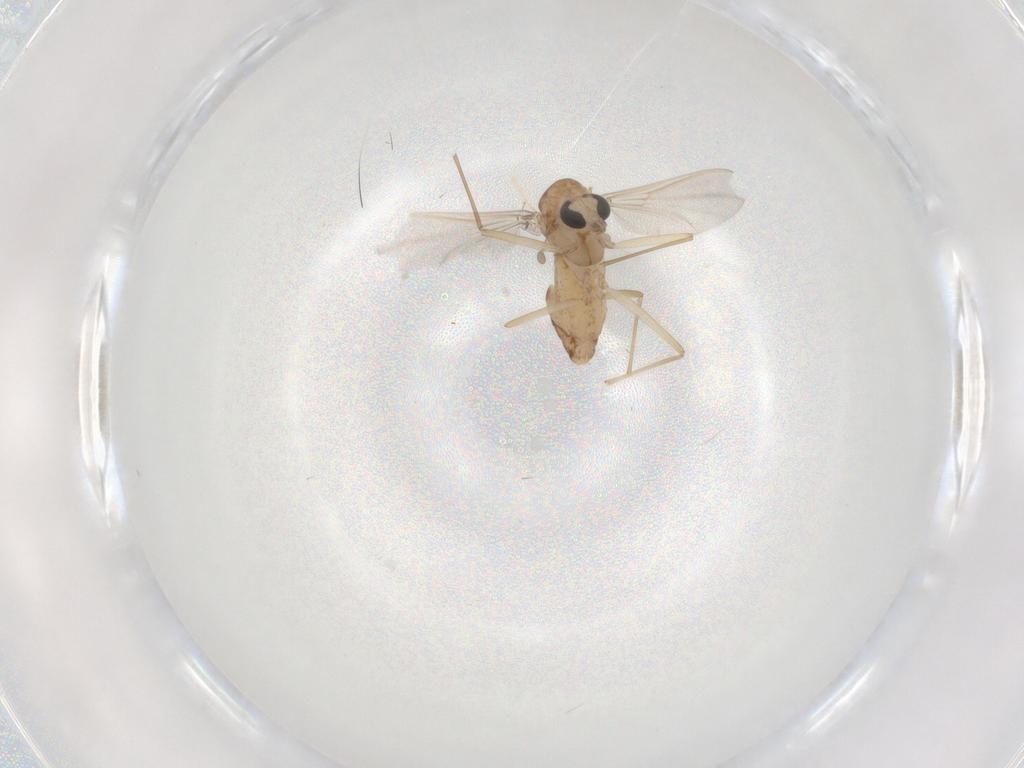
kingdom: Animalia
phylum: Arthropoda
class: Insecta
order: Diptera
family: Chironomidae
